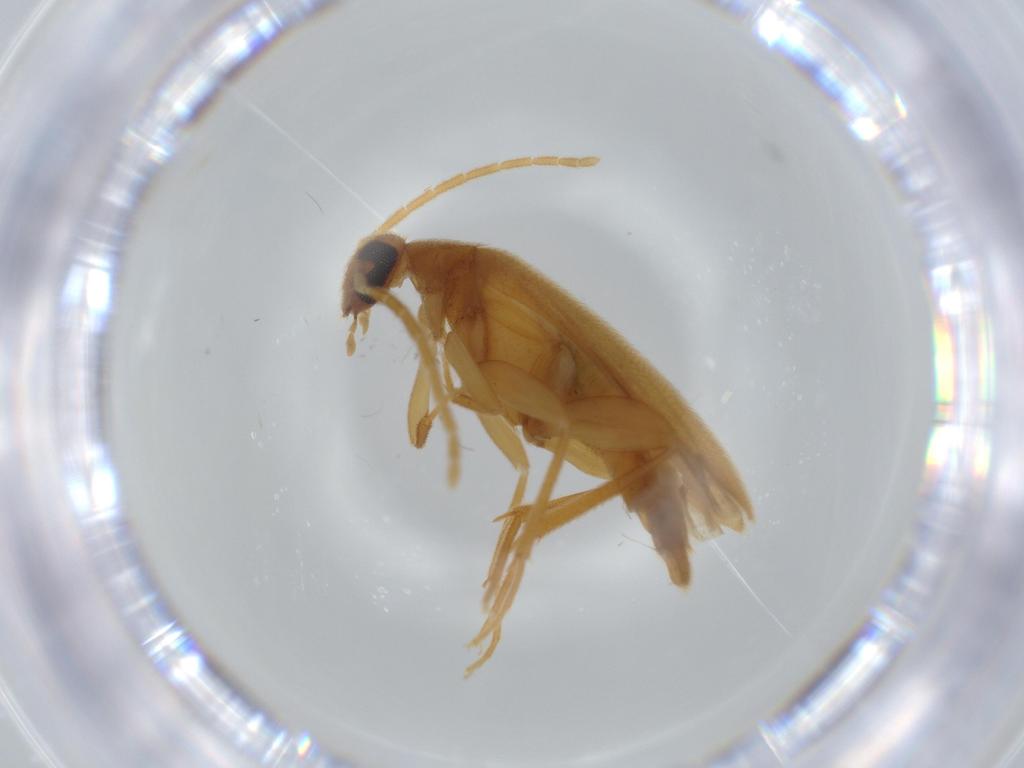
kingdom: Animalia
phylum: Arthropoda
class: Insecta
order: Coleoptera
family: Scraptiidae
